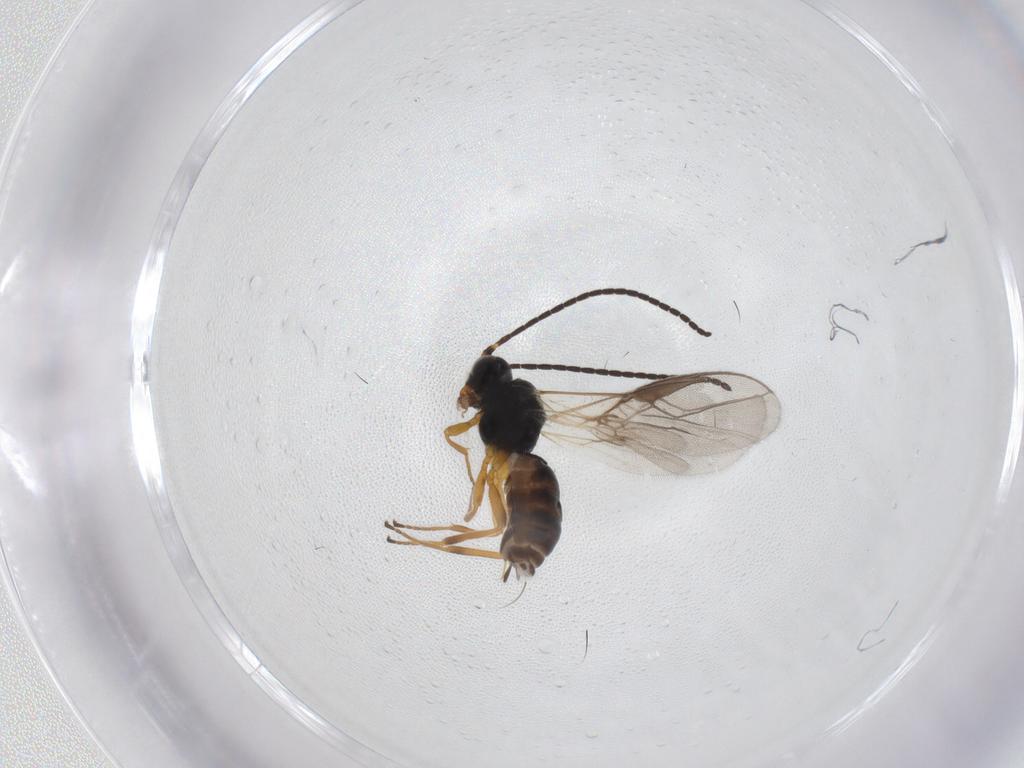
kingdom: Animalia
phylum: Arthropoda
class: Insecta
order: Hymenoptera
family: Braconidae
